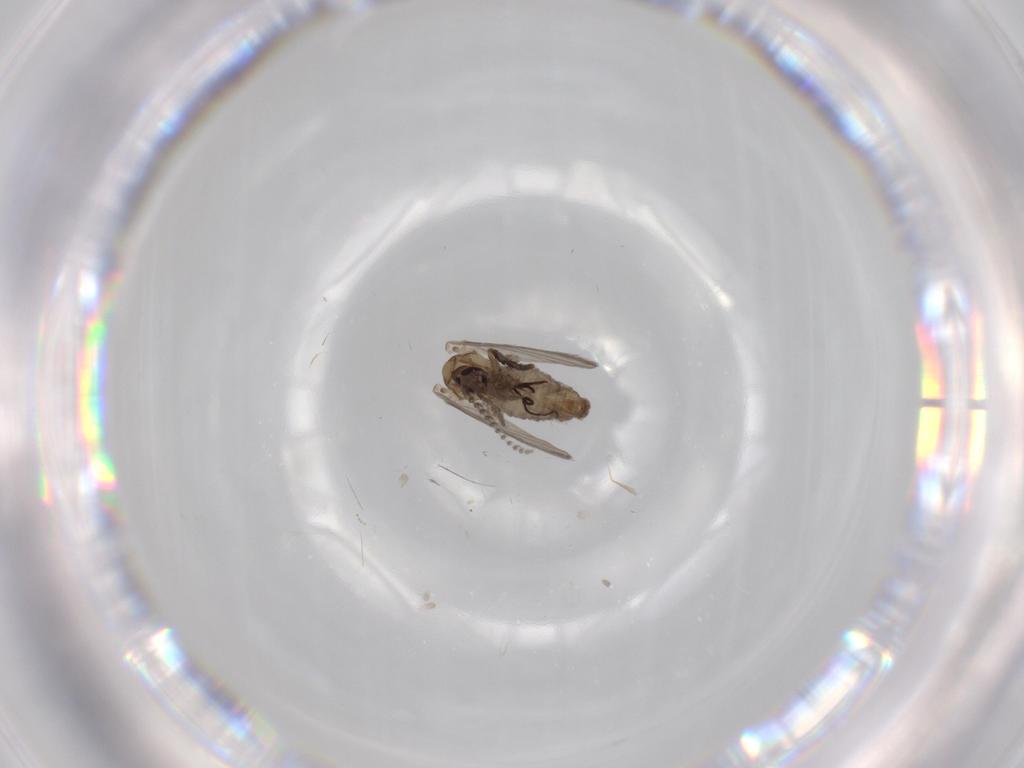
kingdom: Animalia
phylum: Arthropoda
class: Insecta
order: Diptera
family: Psychodidae
